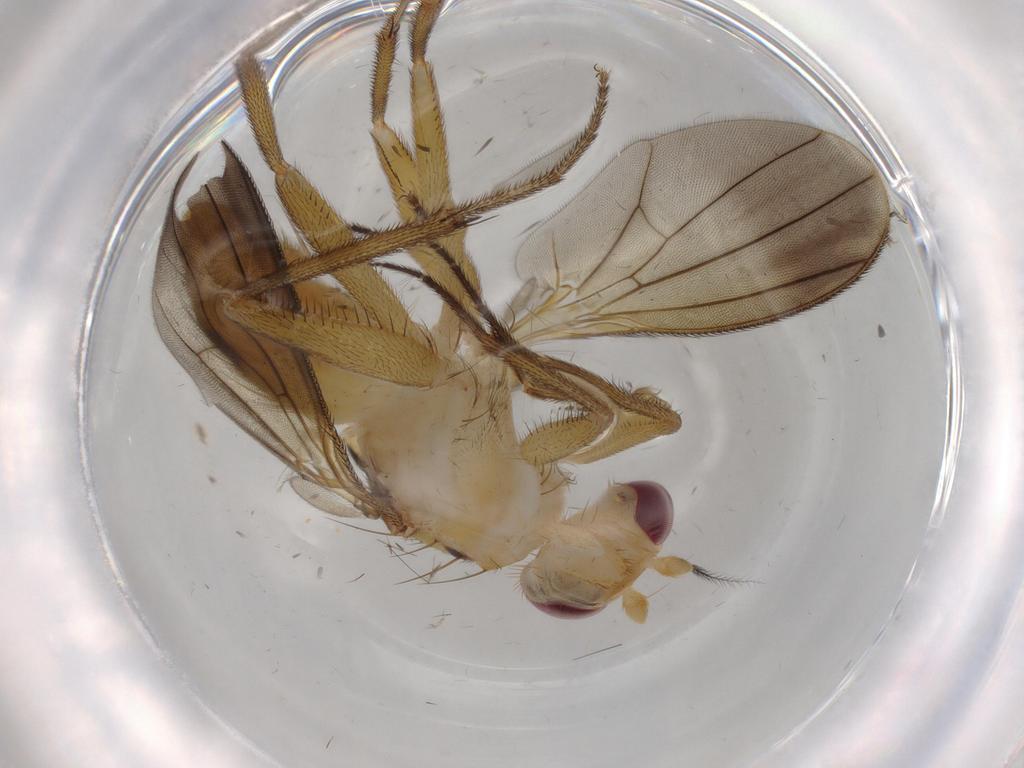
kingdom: Animalia
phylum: Arthropoda
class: Insecta
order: Diptera
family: Clusiidae
